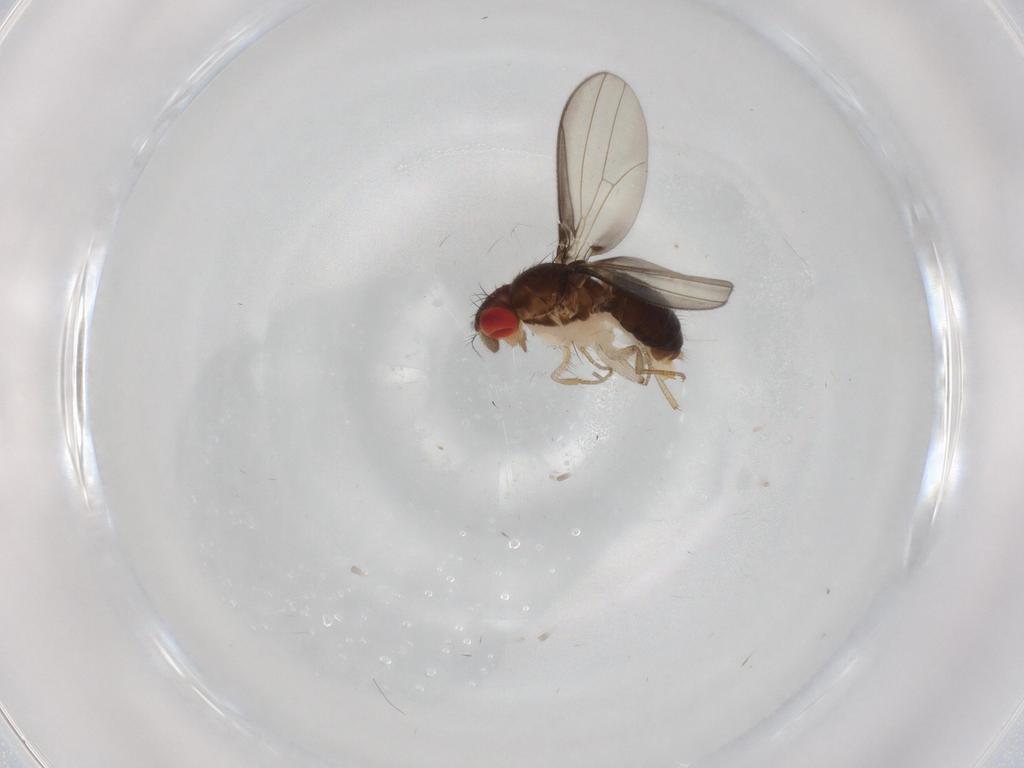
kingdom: Animalia
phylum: Arthropoda
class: Insecta
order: Diptera
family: Drosophilidae
